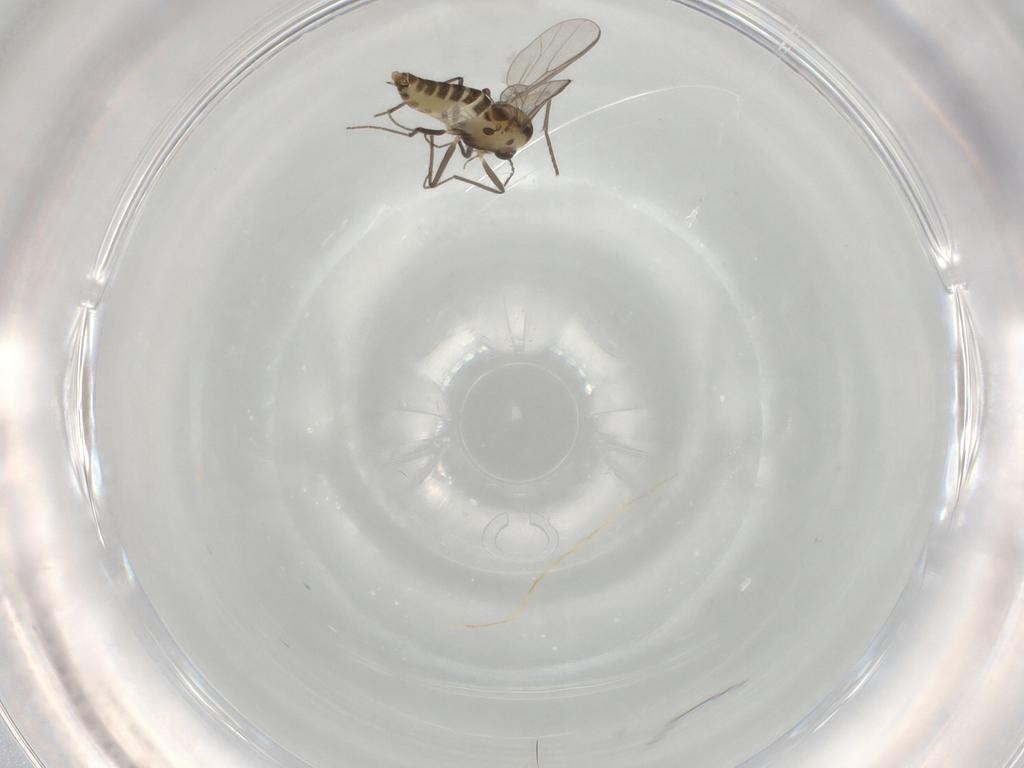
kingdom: Animalia
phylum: Arthropoda
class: Insecta
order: Diptera
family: Chironomidae
